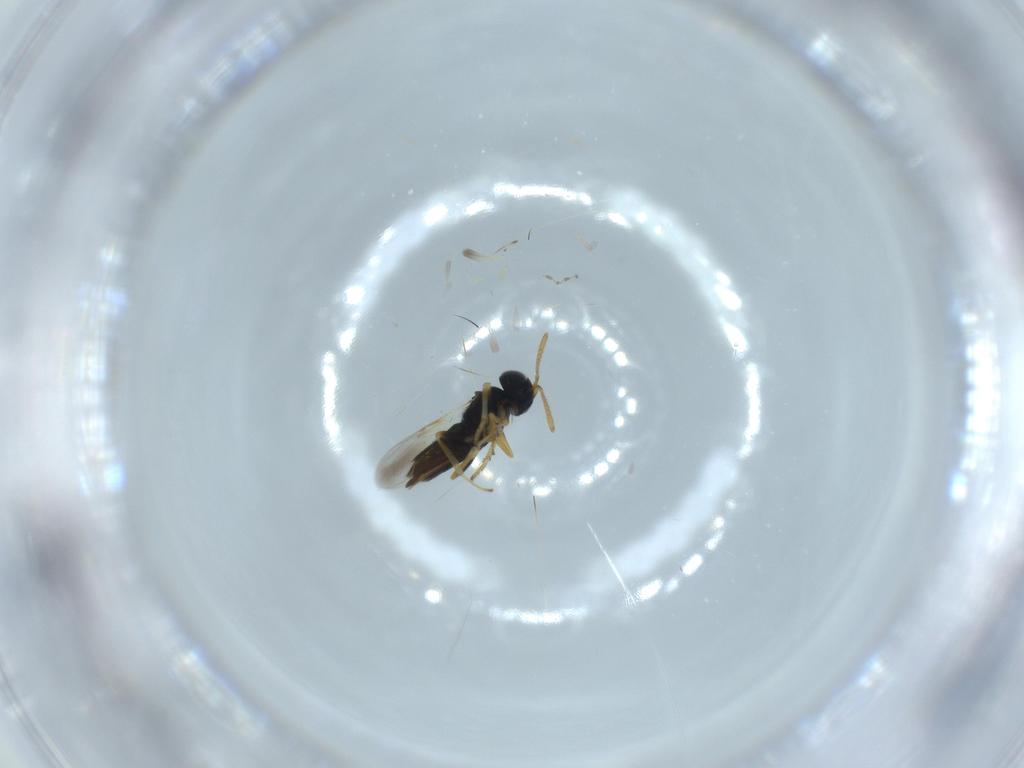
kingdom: Animalia
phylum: Arthropoda
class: Insecta
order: Hymenoptera
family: Encyrtidae
